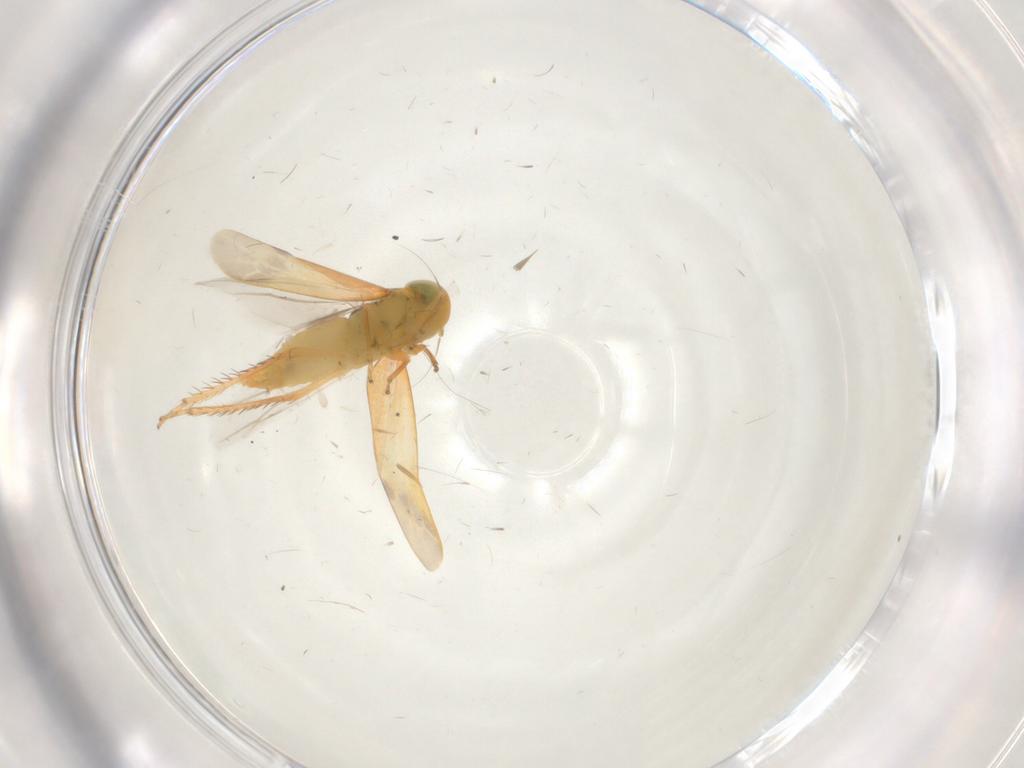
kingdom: Animalia
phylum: Arthropoda
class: Insecta
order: Hemiptera
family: Cicadellidae
